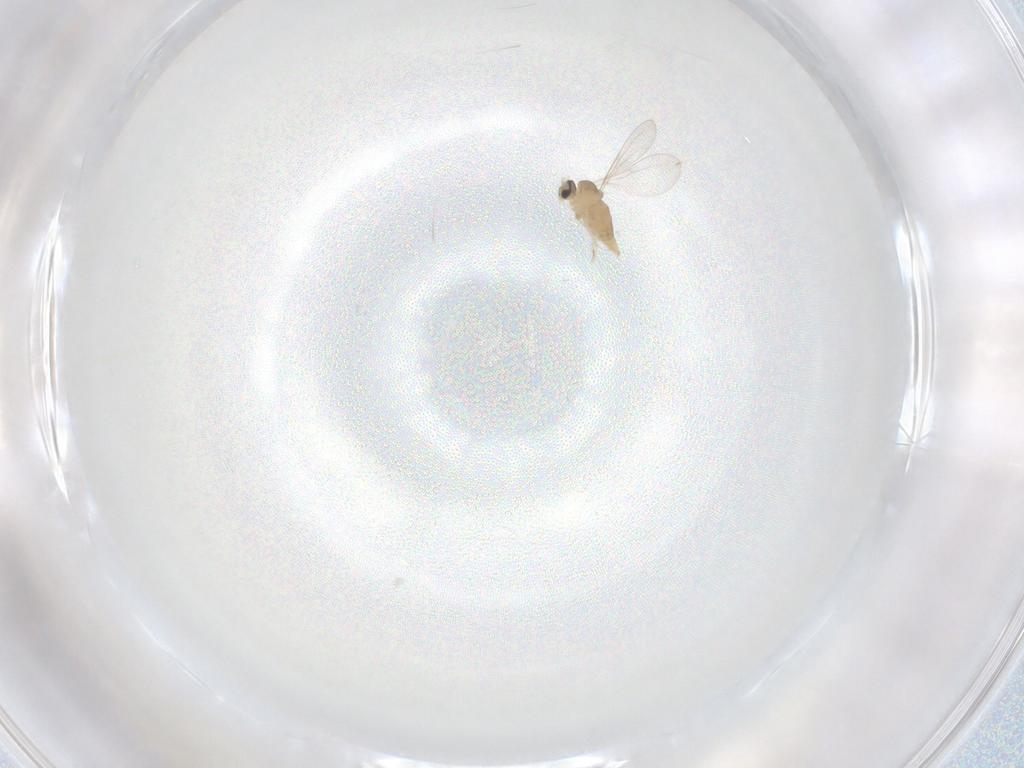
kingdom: Animalia
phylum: Arthropoda
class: Insecta
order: Diptera
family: Cecidomyiidae
